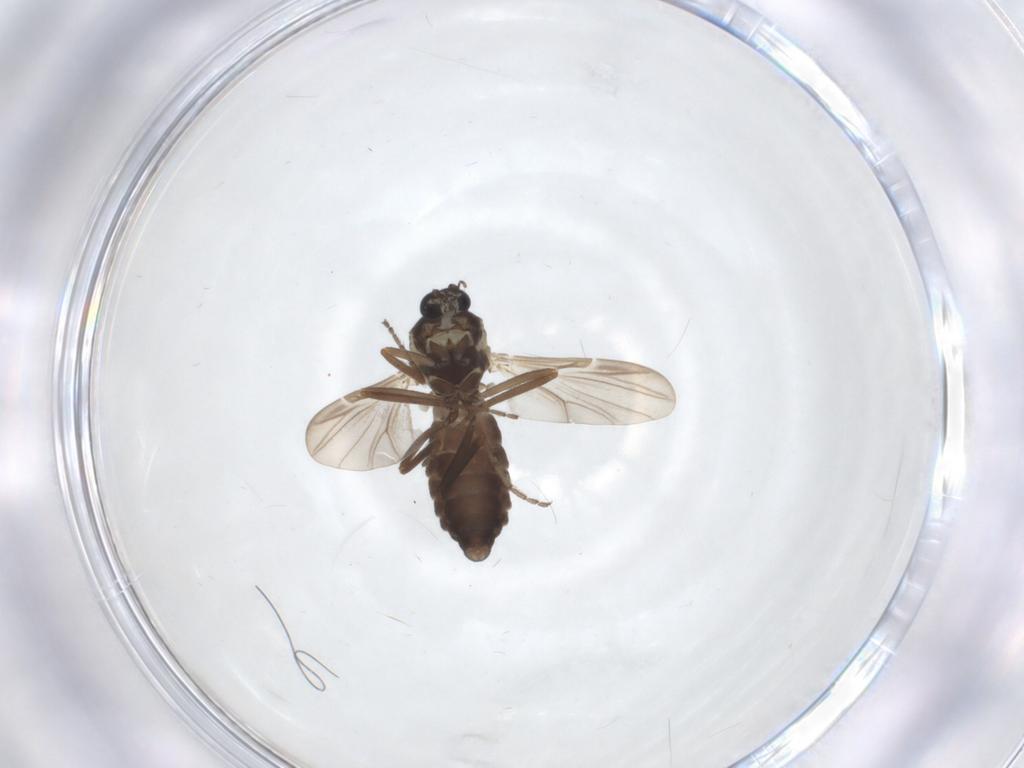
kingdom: Animalia
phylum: Arthropoda
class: Insecta
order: Diptera
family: Ceratopogonidae
